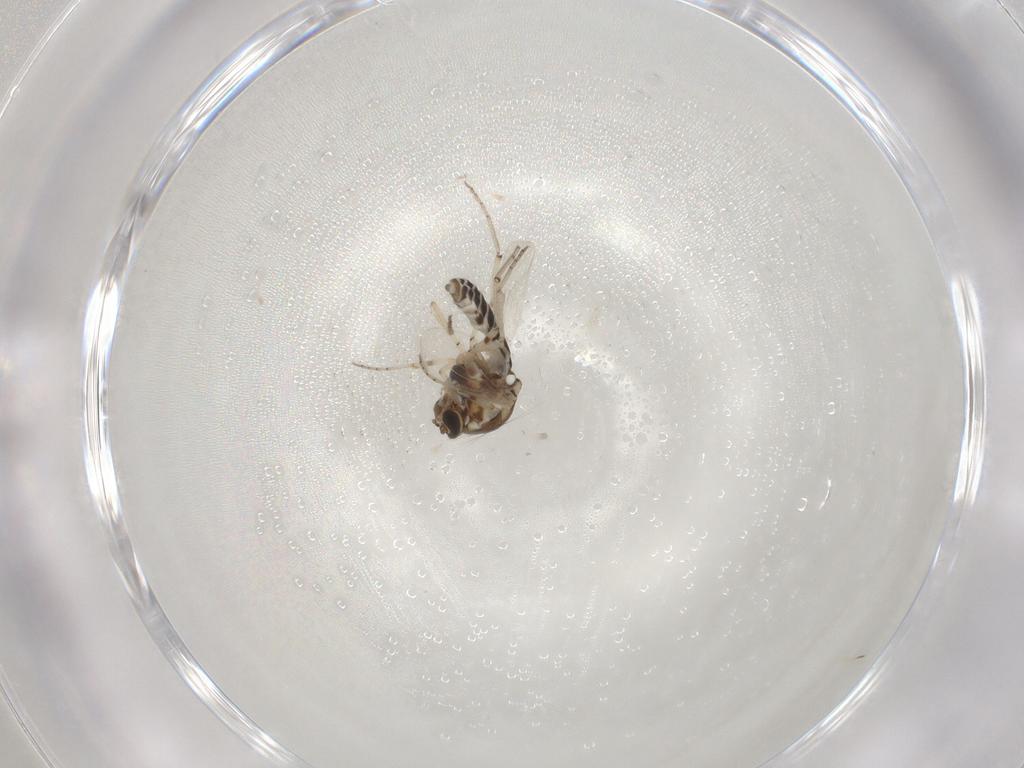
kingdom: Animalia
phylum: Arthropoda
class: Insecta
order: Diptera
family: Ceratopogonidae
